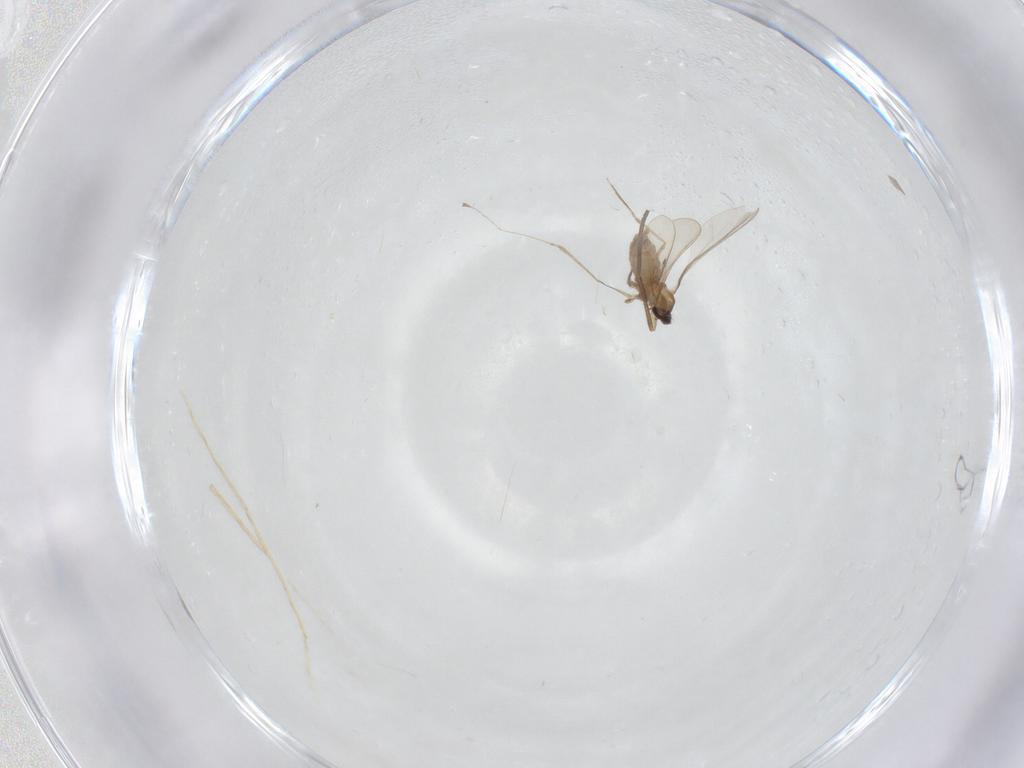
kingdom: Animalia
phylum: Arthropoda
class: Insecta
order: Diptera
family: Cecidomyiidae
